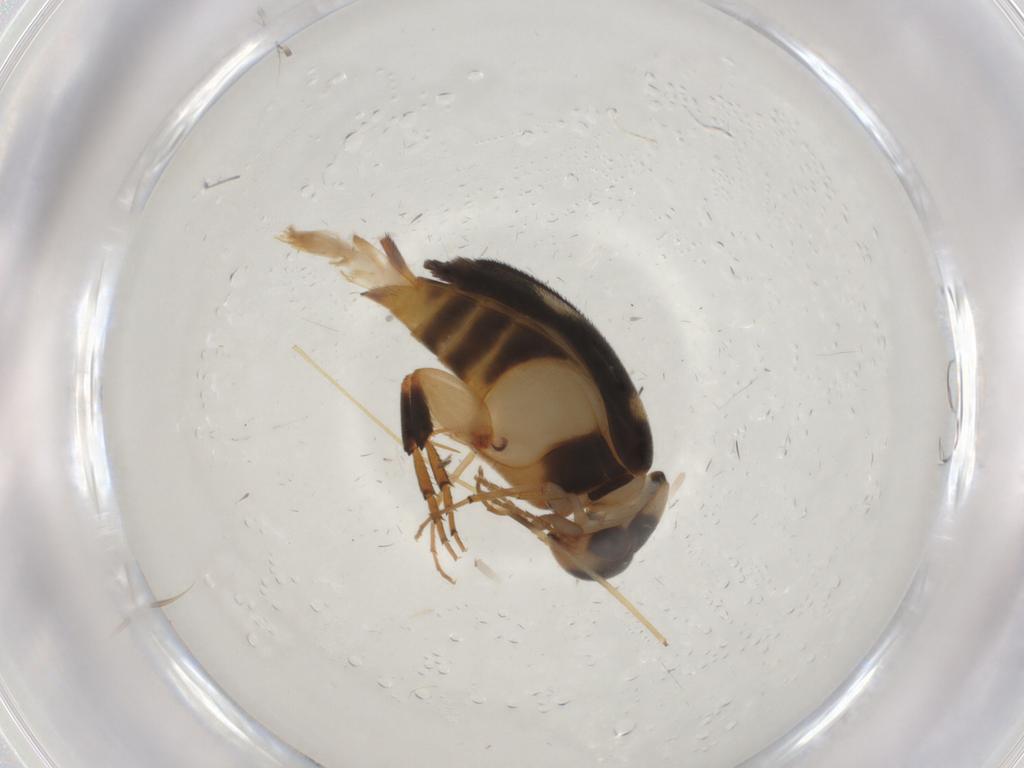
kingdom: Animalia
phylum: Arthropoda
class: Insecta
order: Coleoptera
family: Mordellidae
